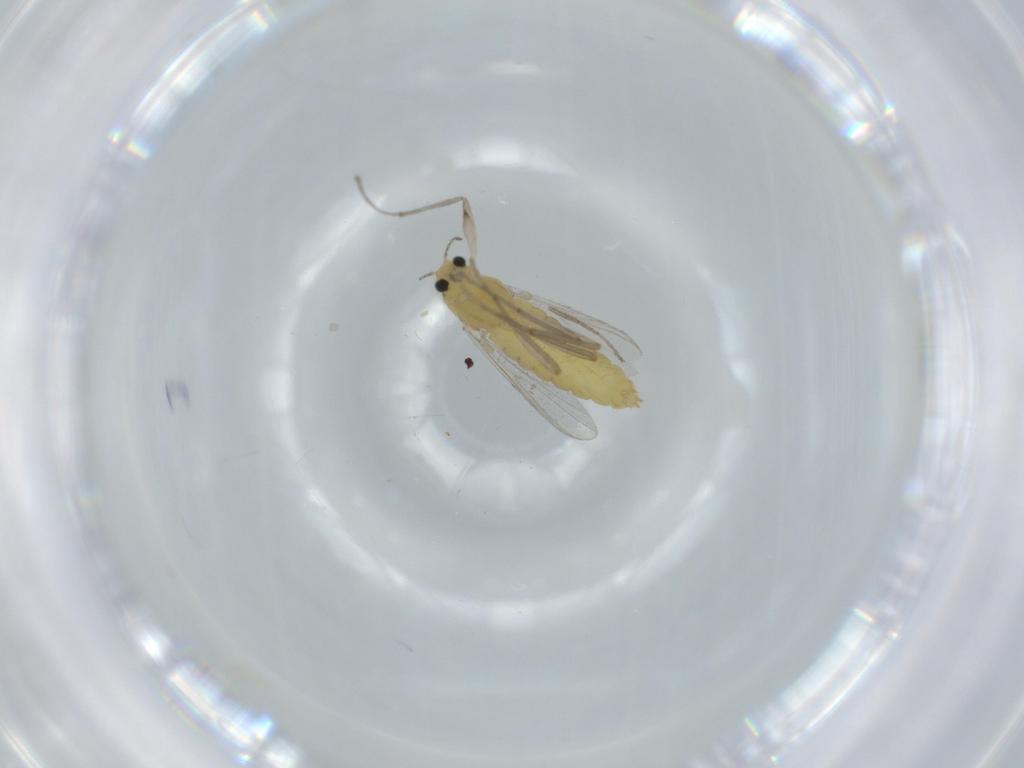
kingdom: Animalia
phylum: Arthropoda
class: Insecta
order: Diptera
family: Chironomidae
